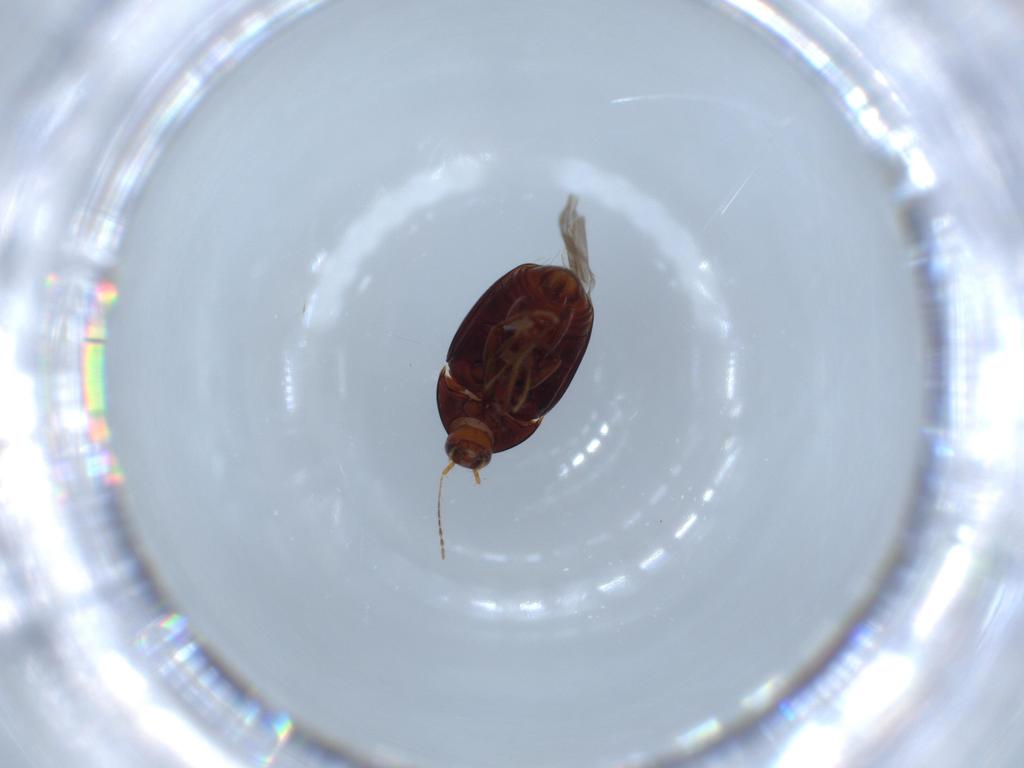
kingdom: Animalia
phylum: Arthropoda
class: Insecta
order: Coleoptera
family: Staphylinidae
